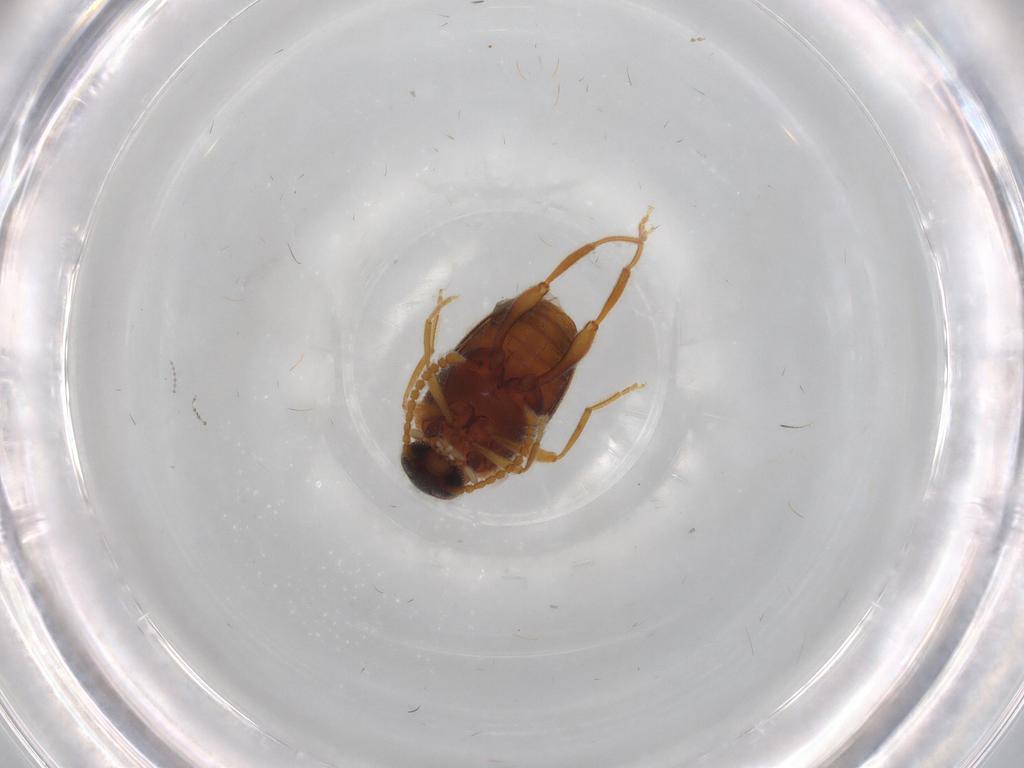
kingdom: Animalia
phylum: Arthropoda
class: Insecta
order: Coleoptera
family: Aderidae
